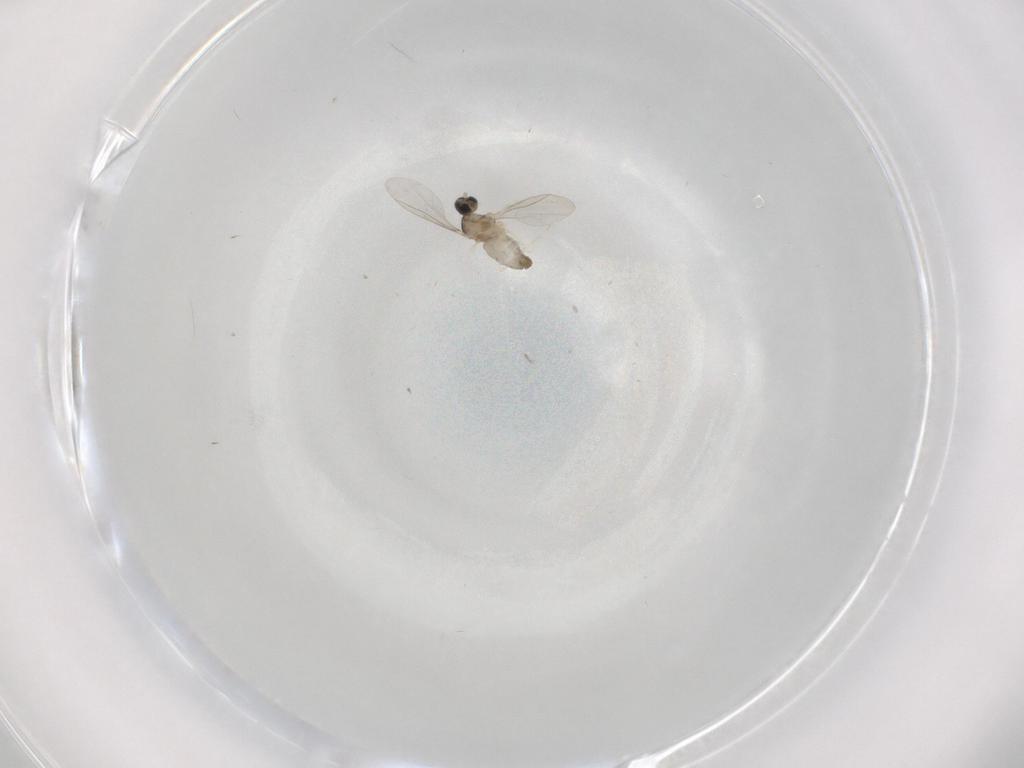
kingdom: Animalia
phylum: Arthropoda
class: Insecta
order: Diptera
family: Cecidomyiidae
